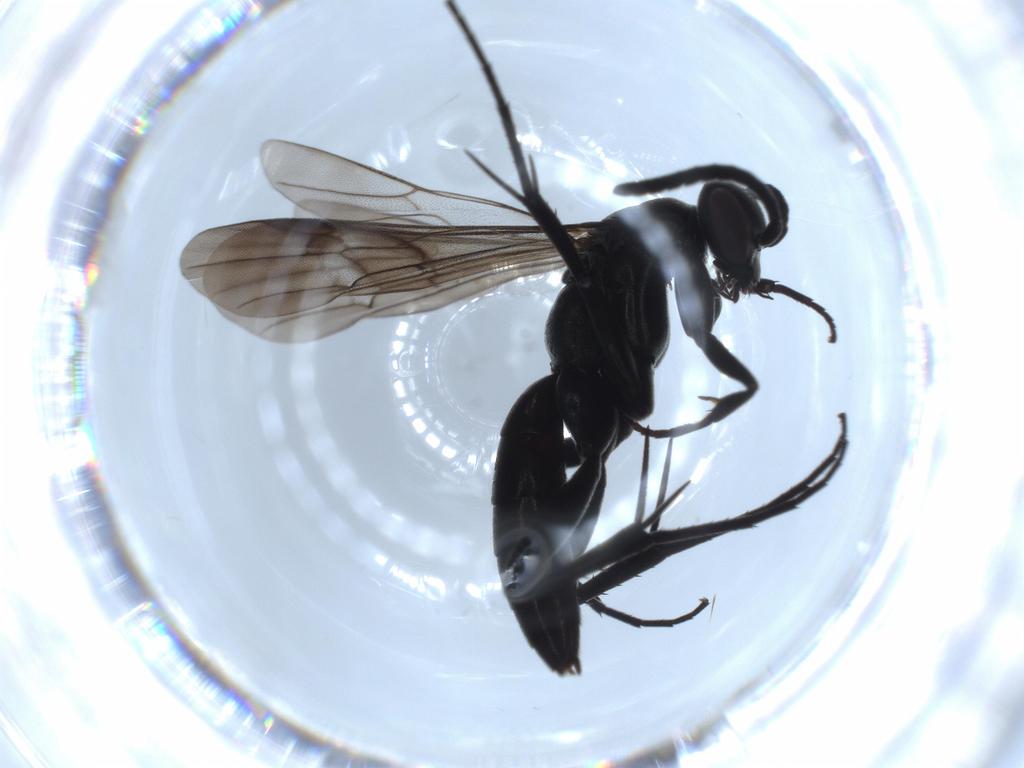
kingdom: Animalia
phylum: Arthropoda
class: Insecta
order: Hymenoptera
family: Pompilidae
